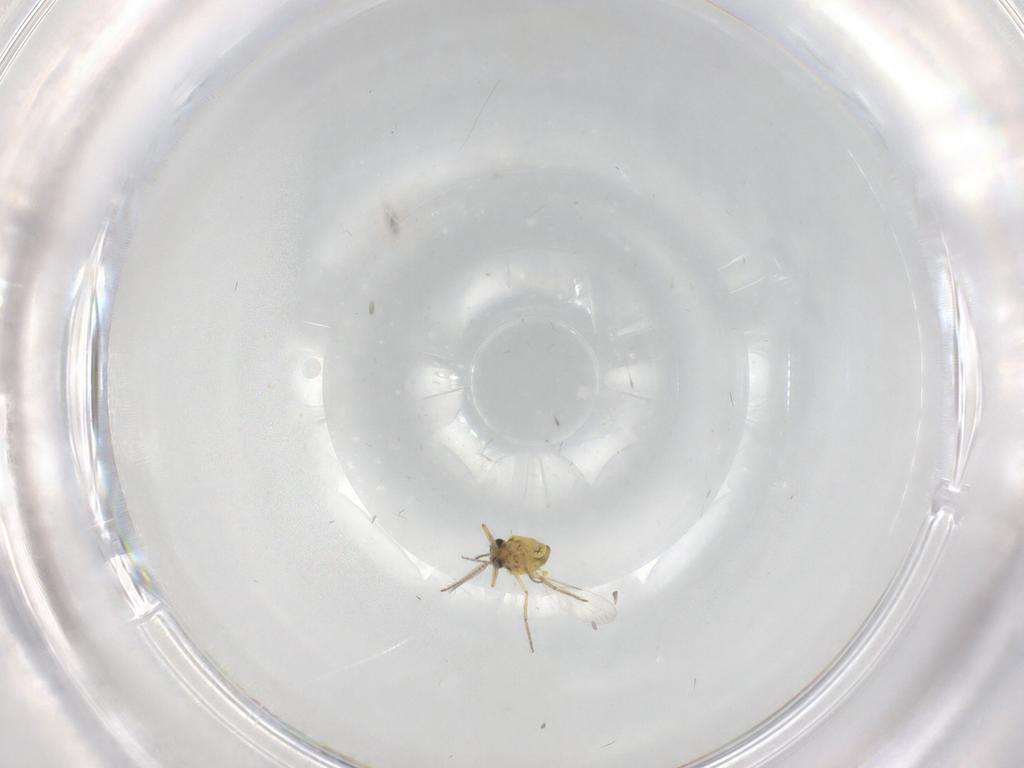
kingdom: Animalia
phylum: Arthropoda
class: Insecta
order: Diptera
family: Ceratopogonidae
